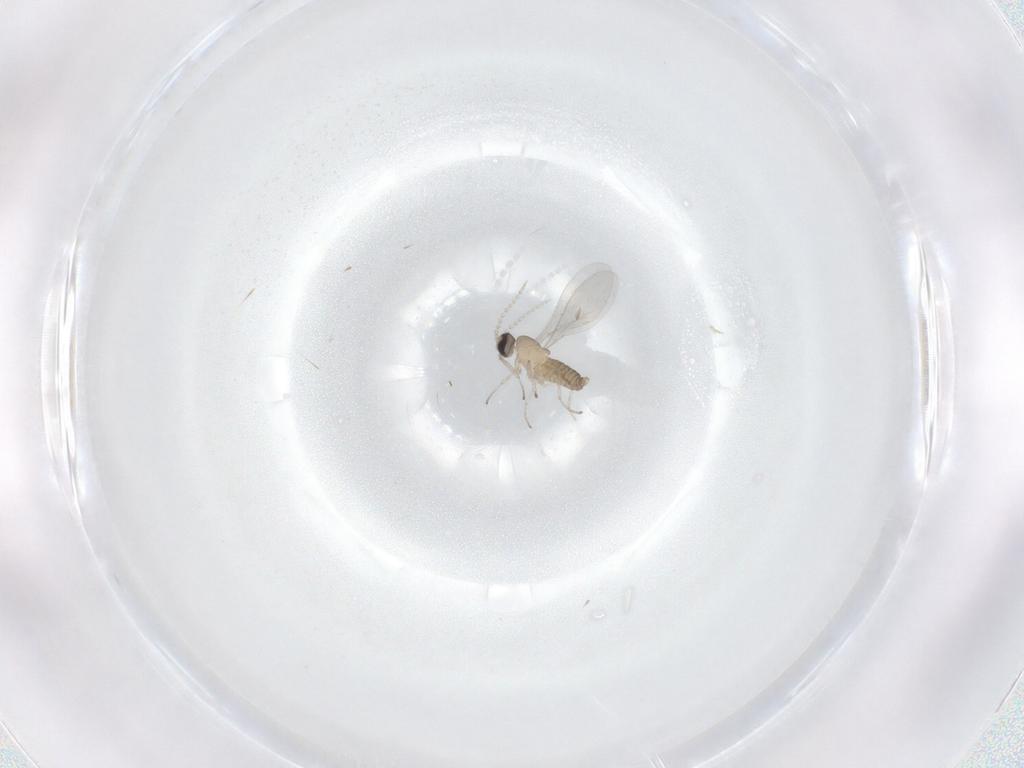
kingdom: Animalia
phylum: Arthropoda
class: Insecta
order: Diptera
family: Cecidomyiidae
